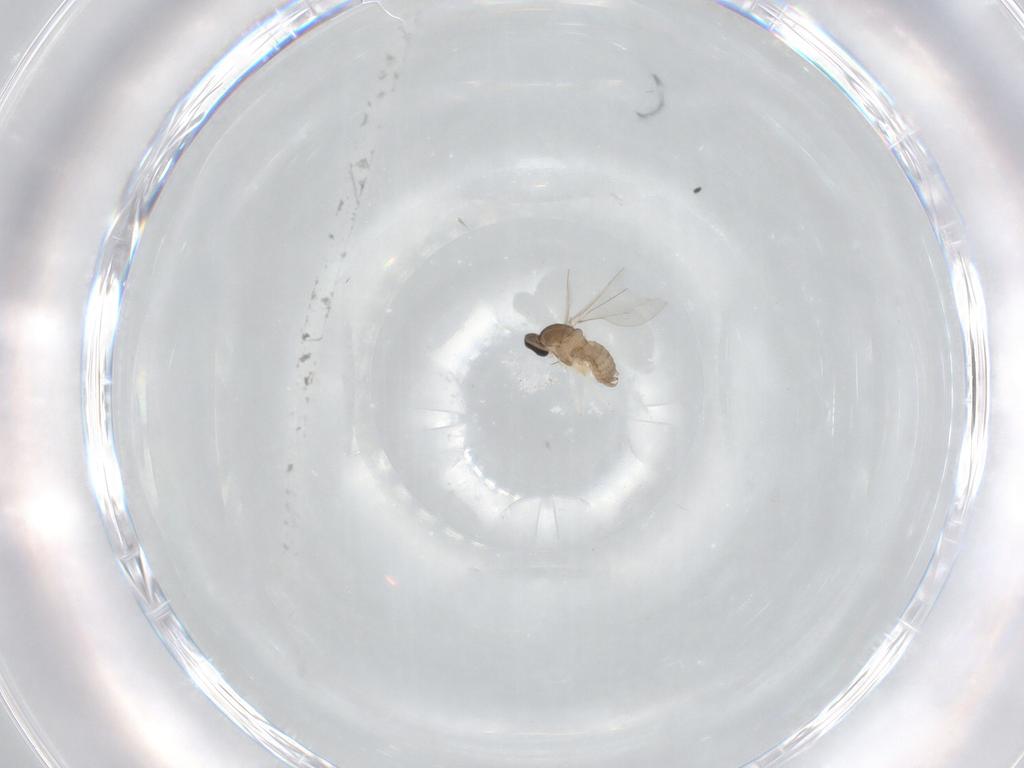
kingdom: Animalia
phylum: Arthropoda
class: Insecta
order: Diptera
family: Cecidomyiidae
